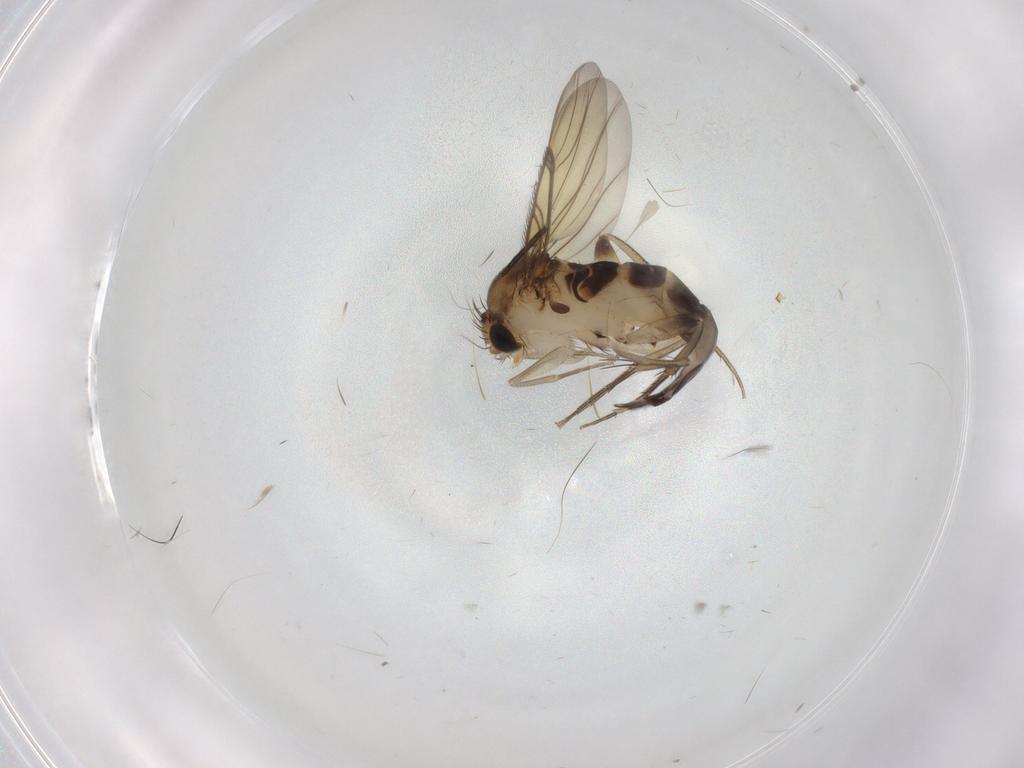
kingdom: Animalia
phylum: Arthropoda
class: Insecta
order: Diptera
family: Phoridae
